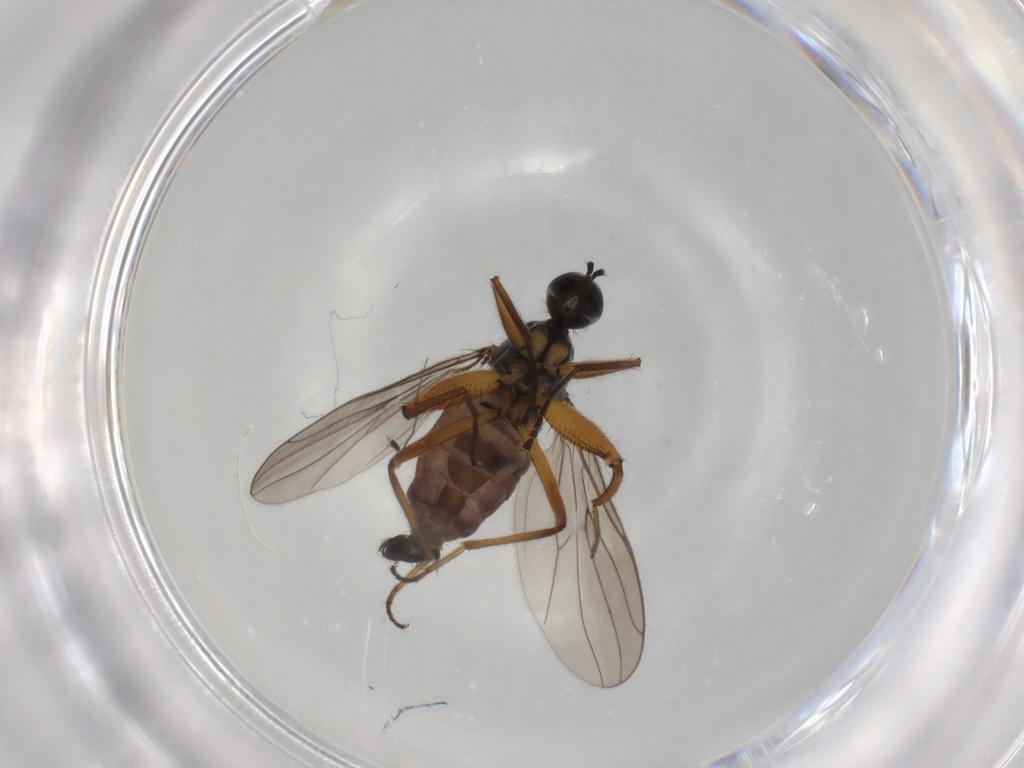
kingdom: Animalia
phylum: Arthropoda
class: Insecta
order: Diptera
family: Hybotidae
